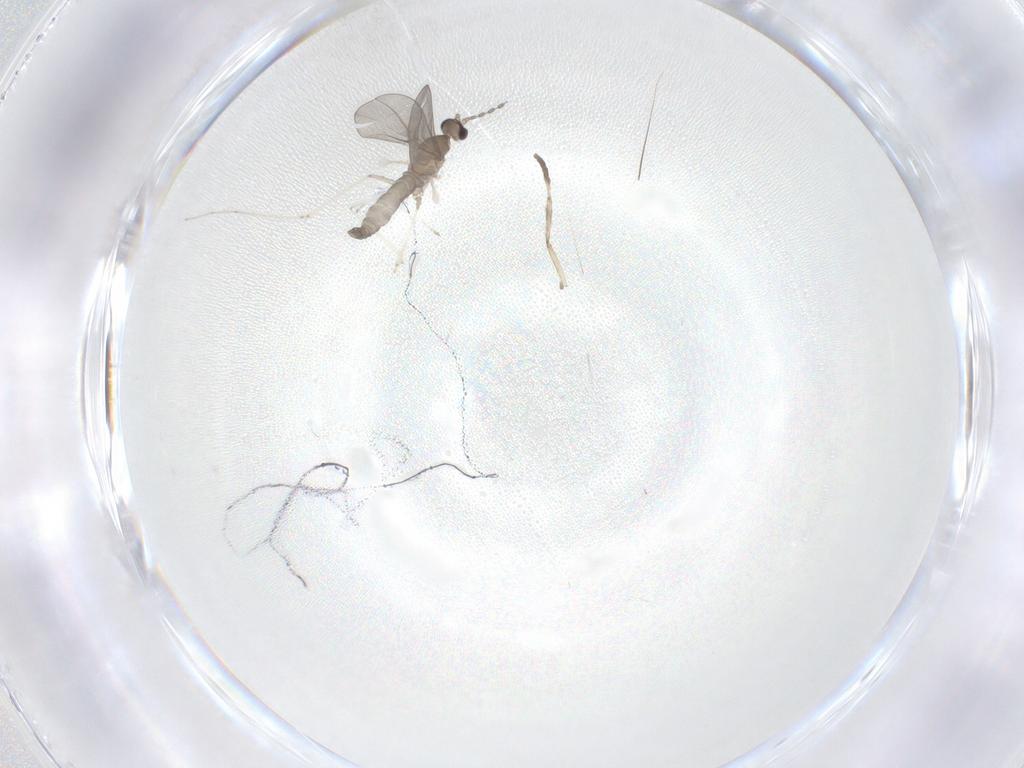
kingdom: Animalia
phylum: Arthropoda
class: Insecta
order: Diptera
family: Cecidomyiidae
